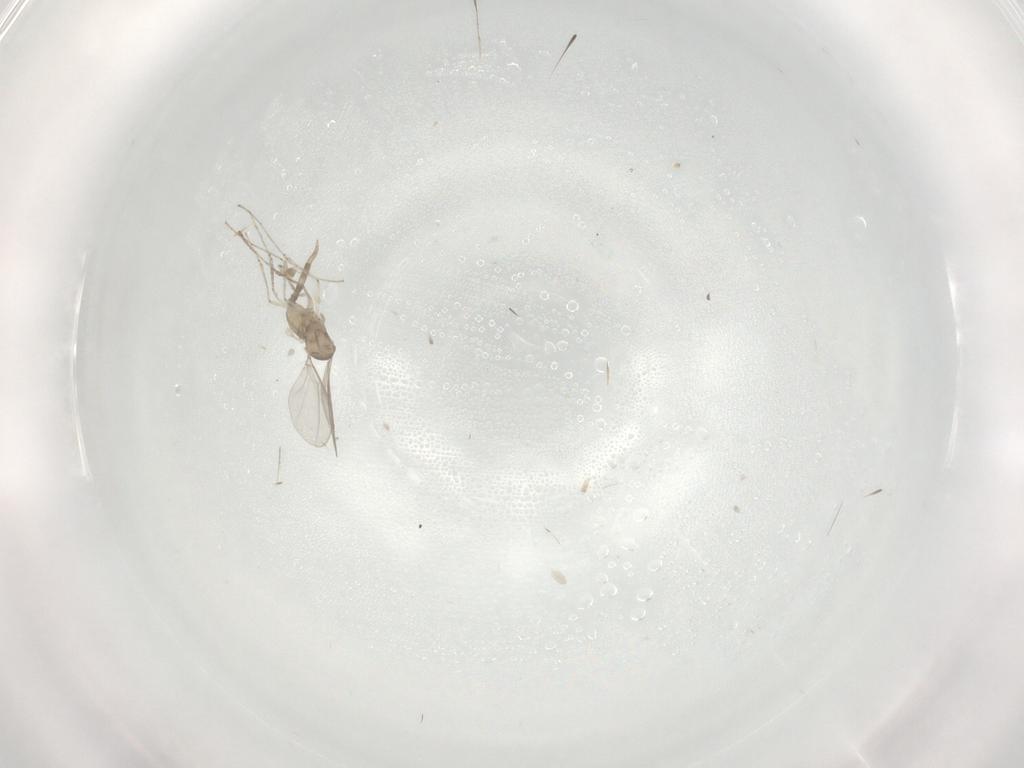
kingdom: Animalia
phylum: Arthropoda
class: Insecta
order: Diptera
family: Cecidomyiidae
